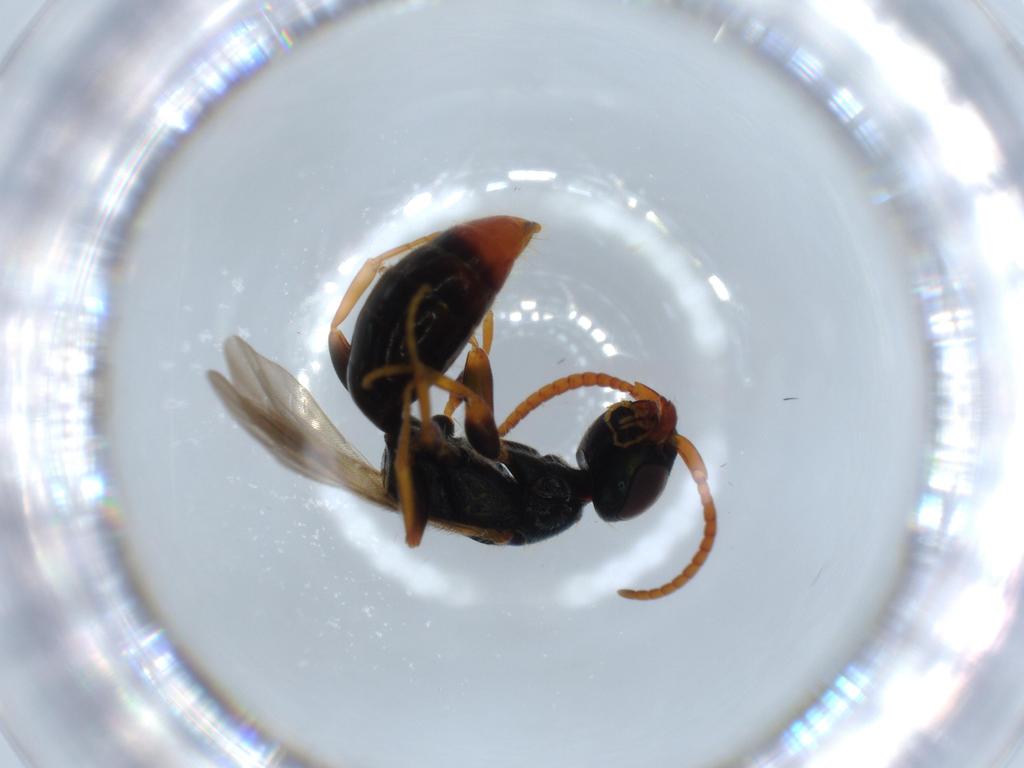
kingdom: Animalia
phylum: Arthropoda
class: Insecta
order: Hymenoptera
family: Bethylidae
